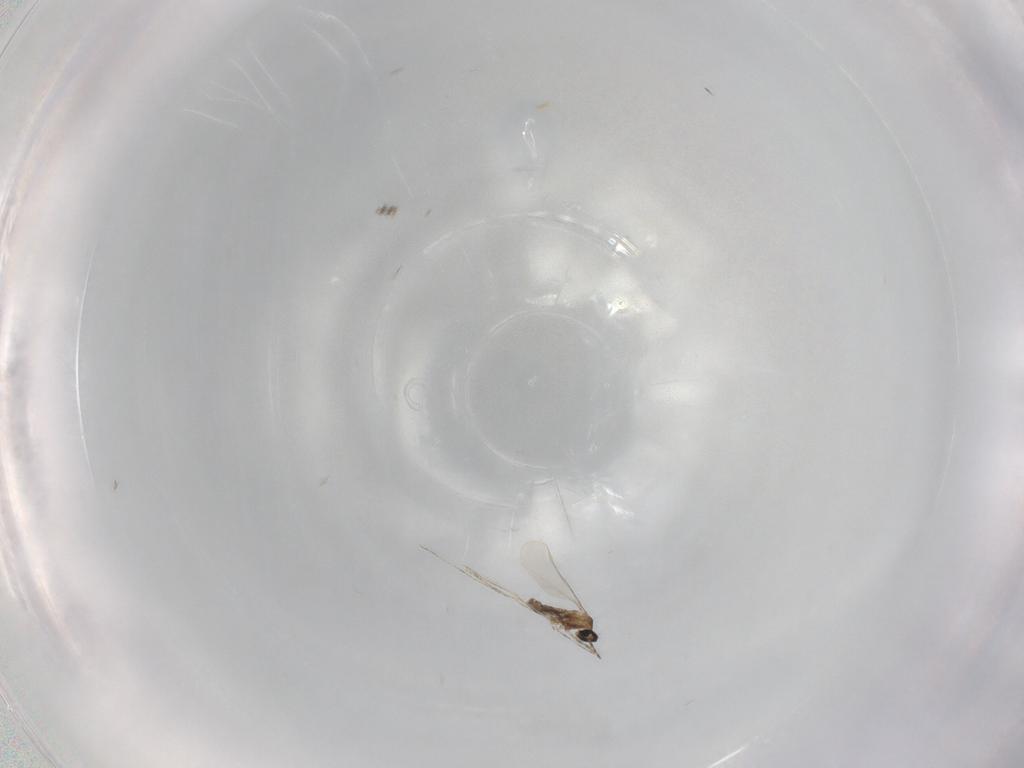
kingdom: Animalia
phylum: Arthropoda
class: Insecta
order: Diptera
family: Cecidomyiidae
